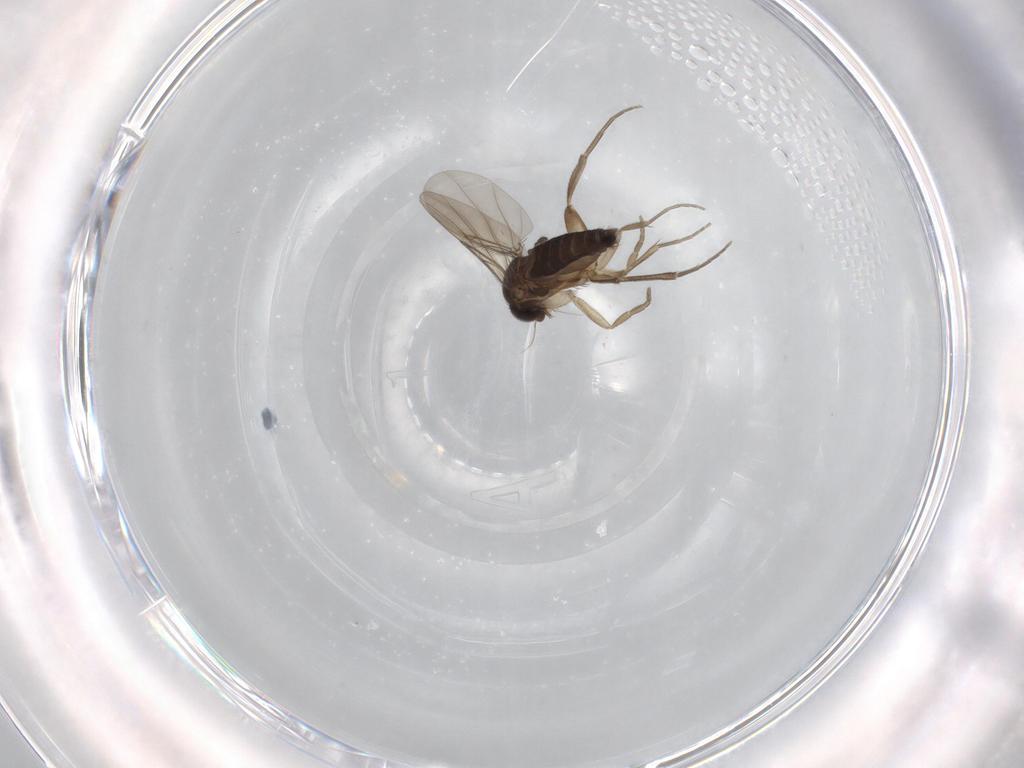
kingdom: Animalia
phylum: Arthropoda
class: Insecta
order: Diptera
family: Phoridae
